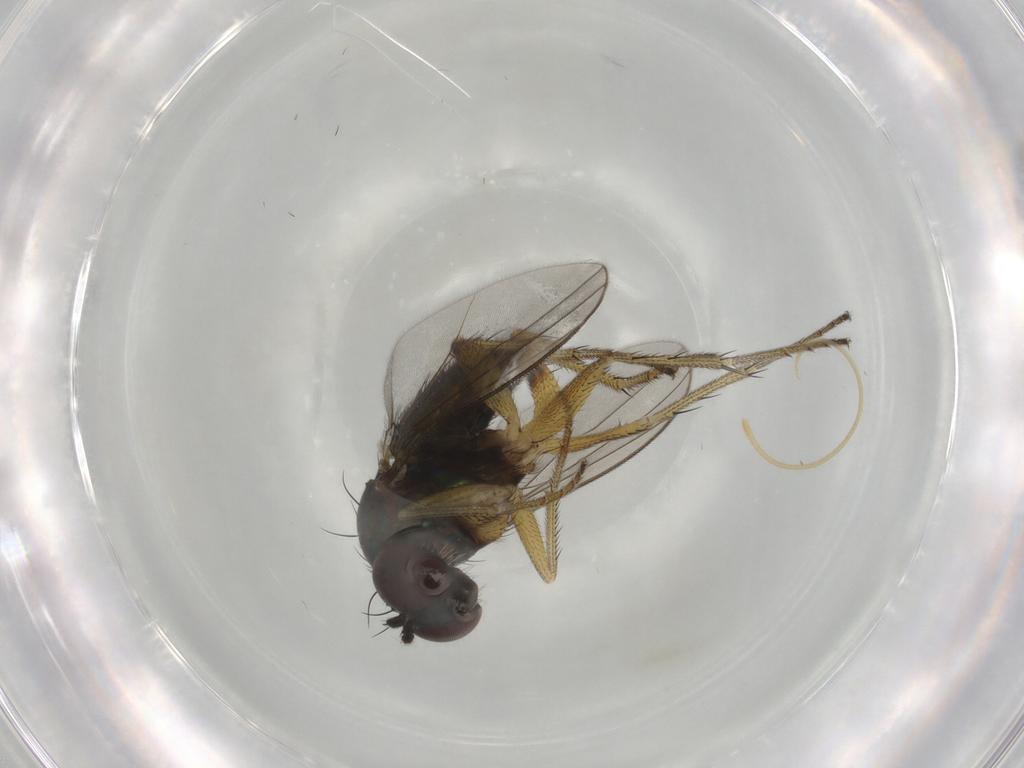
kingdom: Animalia
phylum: Arthropoda
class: Insecta
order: Diptera
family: Dolichopodidae
